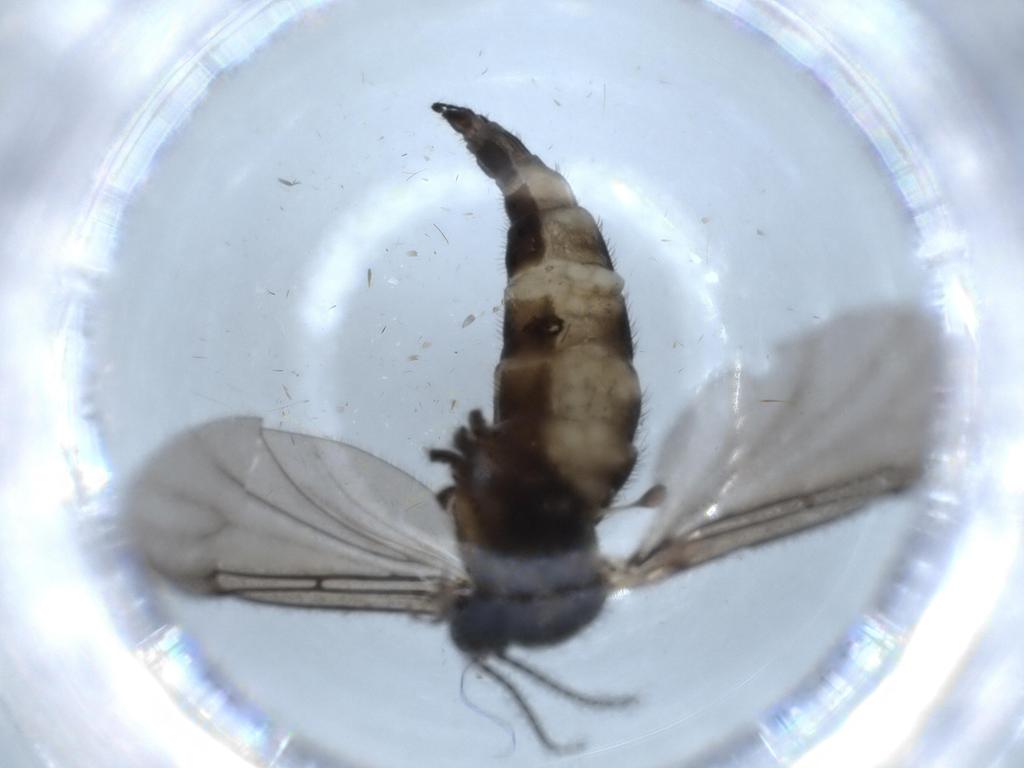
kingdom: Animalia
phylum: Arthropoda
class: Insecta
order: Diptera
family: Sciaridae
